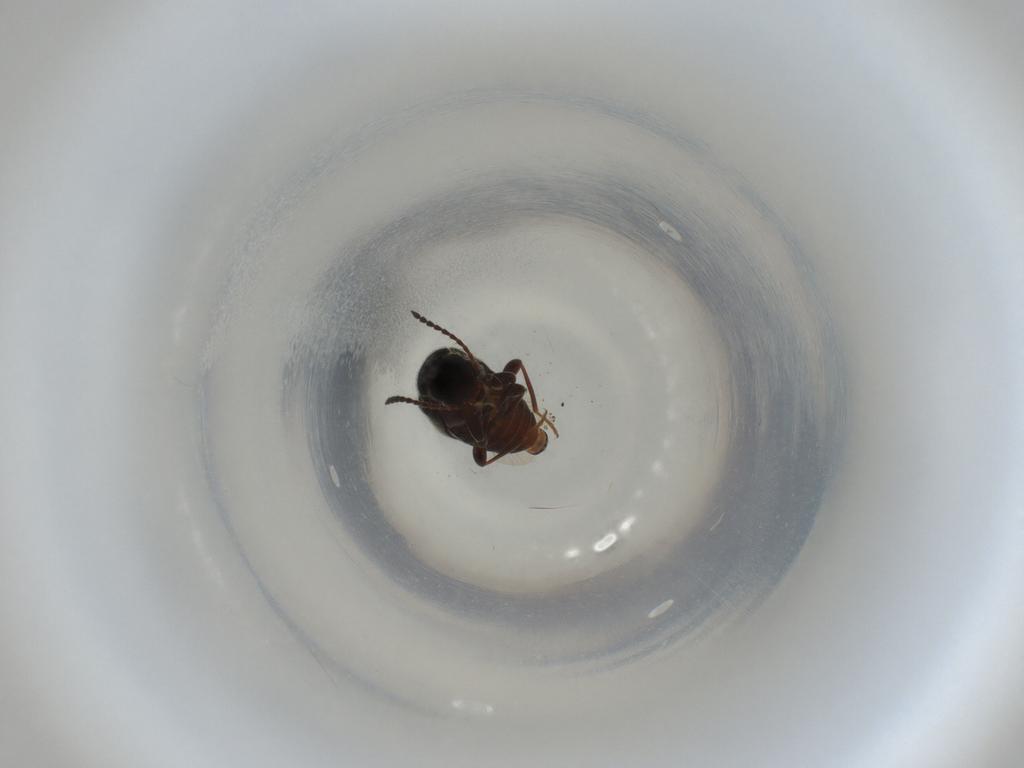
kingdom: Animalia
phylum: Arthropoda
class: Insecta
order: Coleoptera
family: Anthicidae
